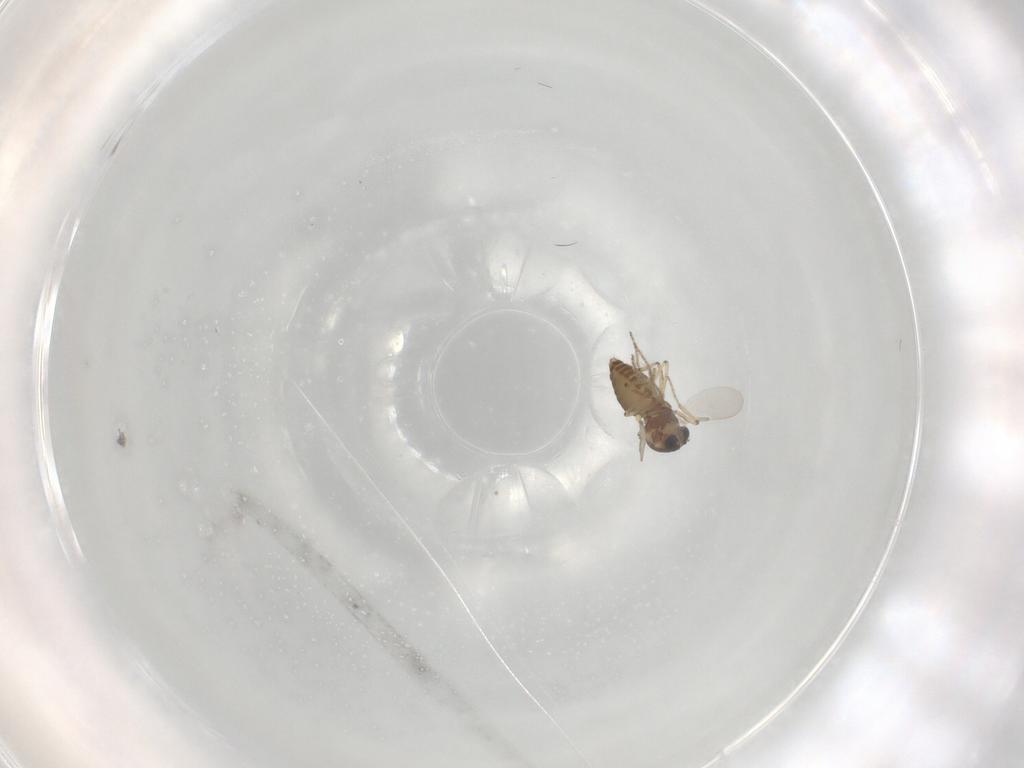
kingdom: Animalia
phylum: Arthropoda
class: Insecta
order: Diptera
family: Ceratopogonidae
